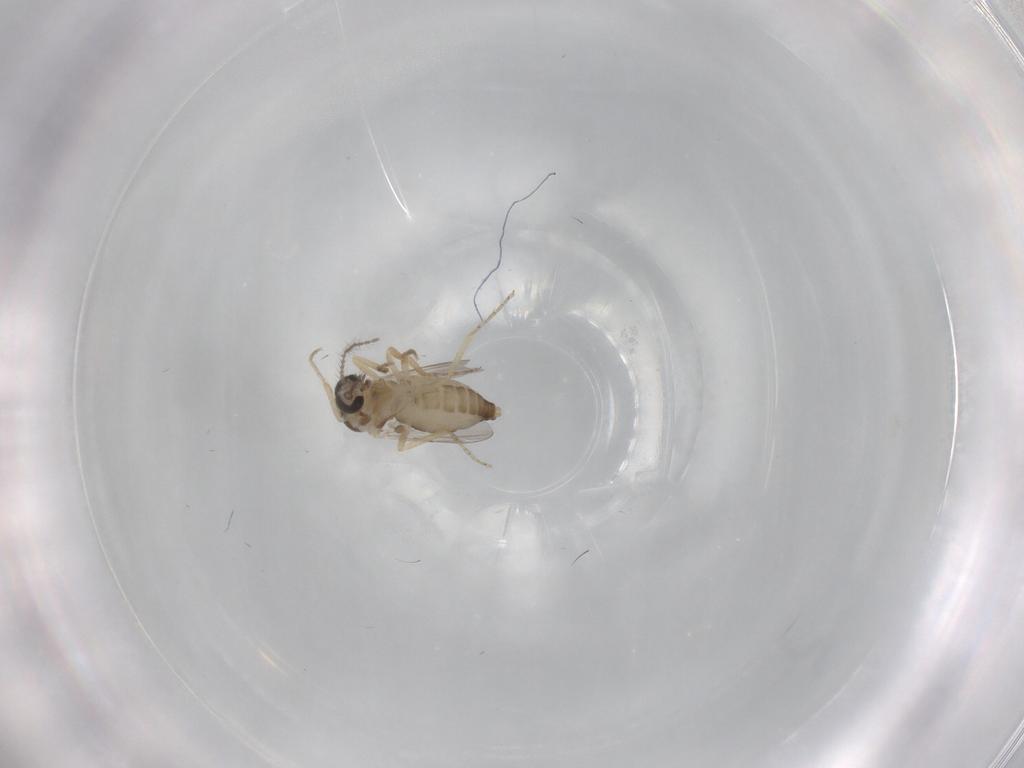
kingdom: Animalia
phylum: Arthropoda
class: Insecta
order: Diptera
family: Ceratopogonidae
